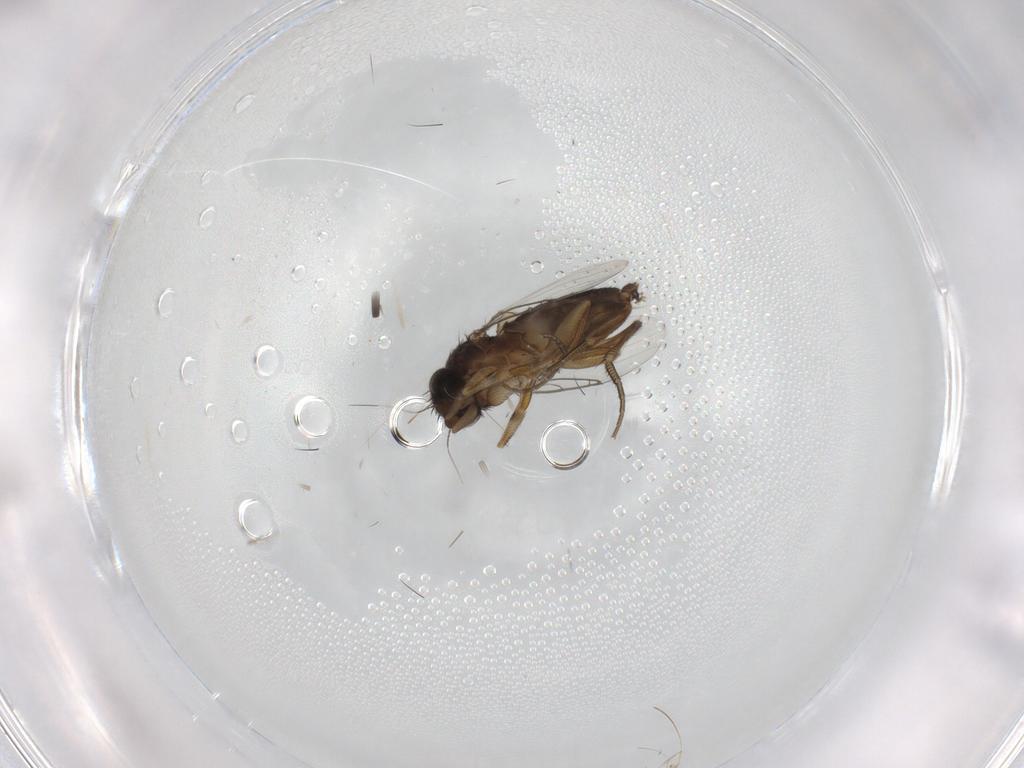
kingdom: Animalia
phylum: Arthropoda
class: Insecta
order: Diptera
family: Phoridae
